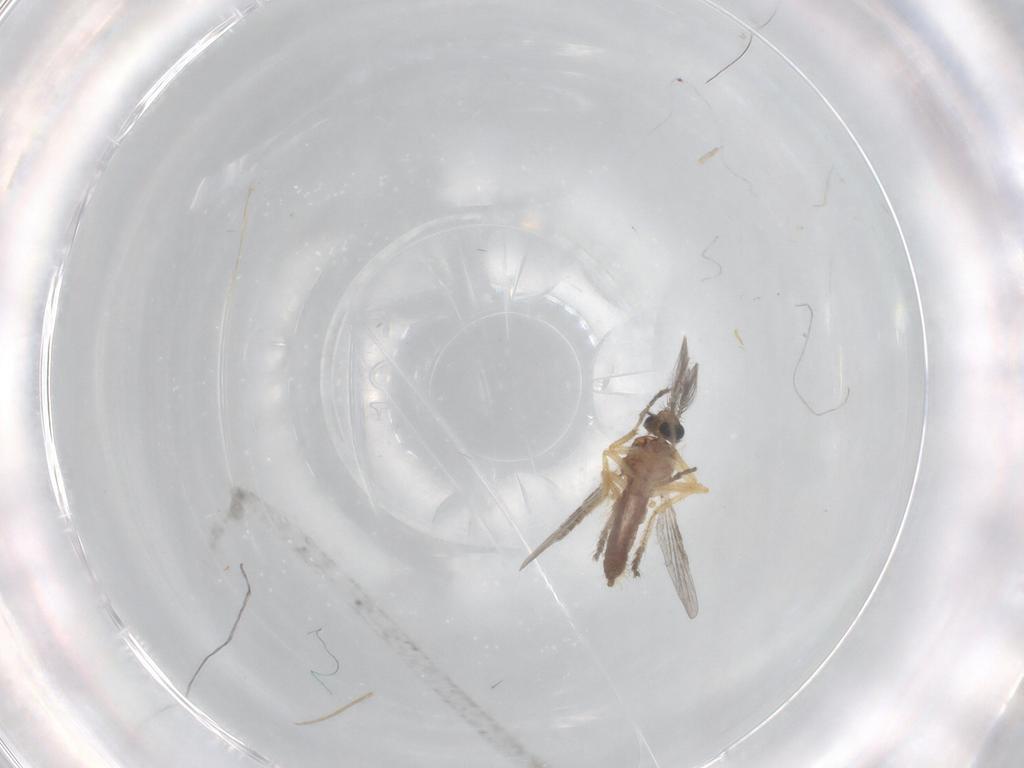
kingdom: Animalia
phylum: Arthropoda
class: Insecta
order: Diptera
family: Ceratopogonidae
